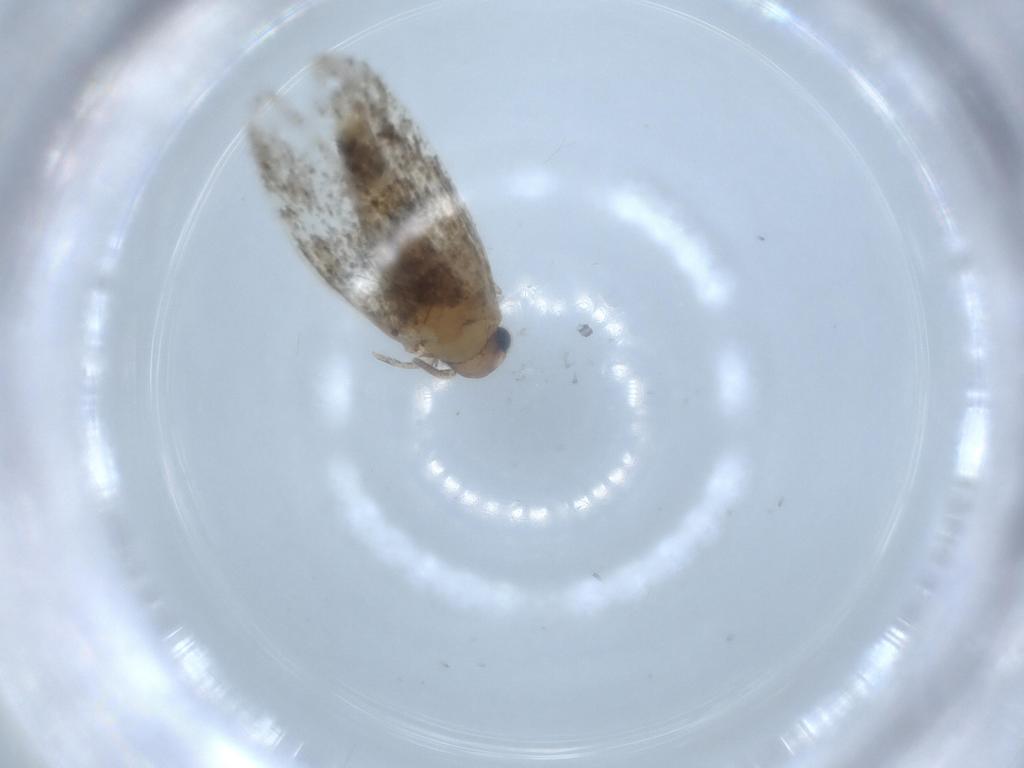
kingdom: Animalia
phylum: Arthropoda
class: Insecta
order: Lepidoptera
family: Tineidae
